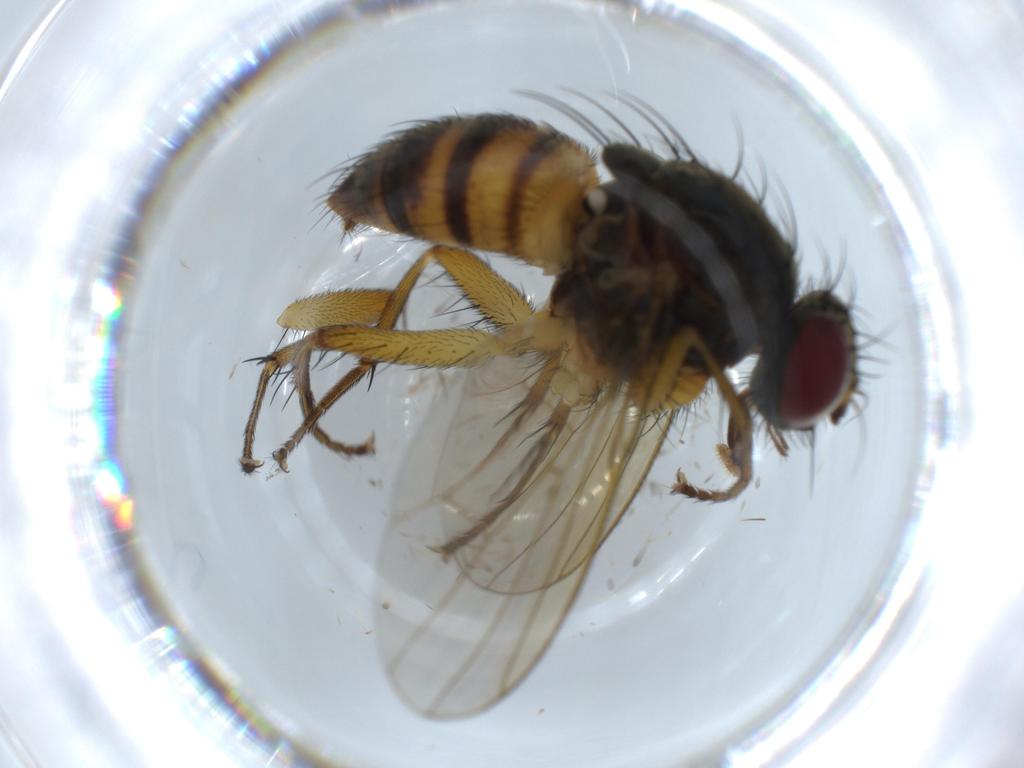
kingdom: Animalia
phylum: Arthropoda
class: Insecta
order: Diptera
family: Muscidae
